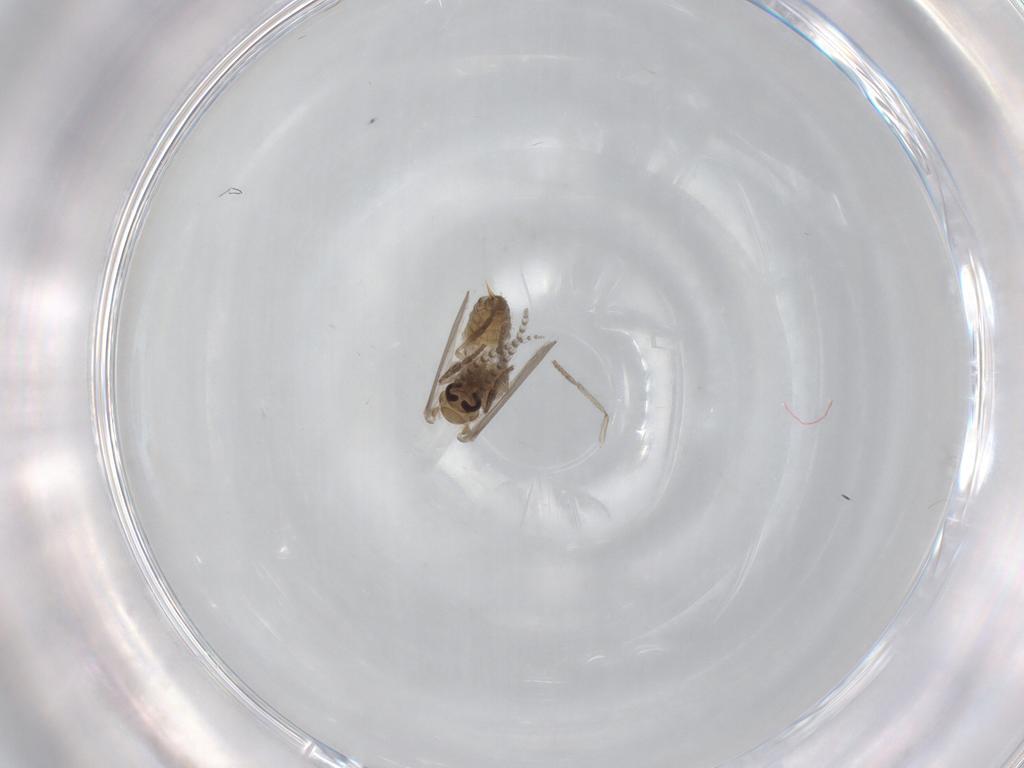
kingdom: Animalia
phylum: Arthropoda
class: Insecta
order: Diptera
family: Psychodidae
